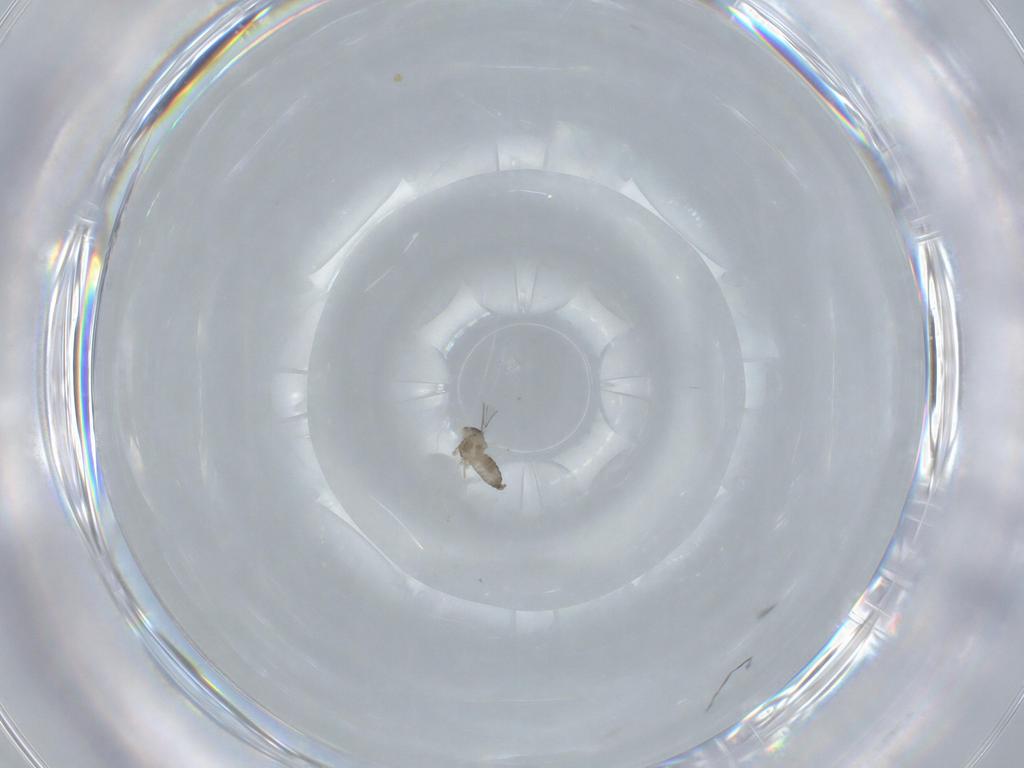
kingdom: Animalia
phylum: Arthropoda
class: Insecta
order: Diptera
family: Cecidomyiidae
